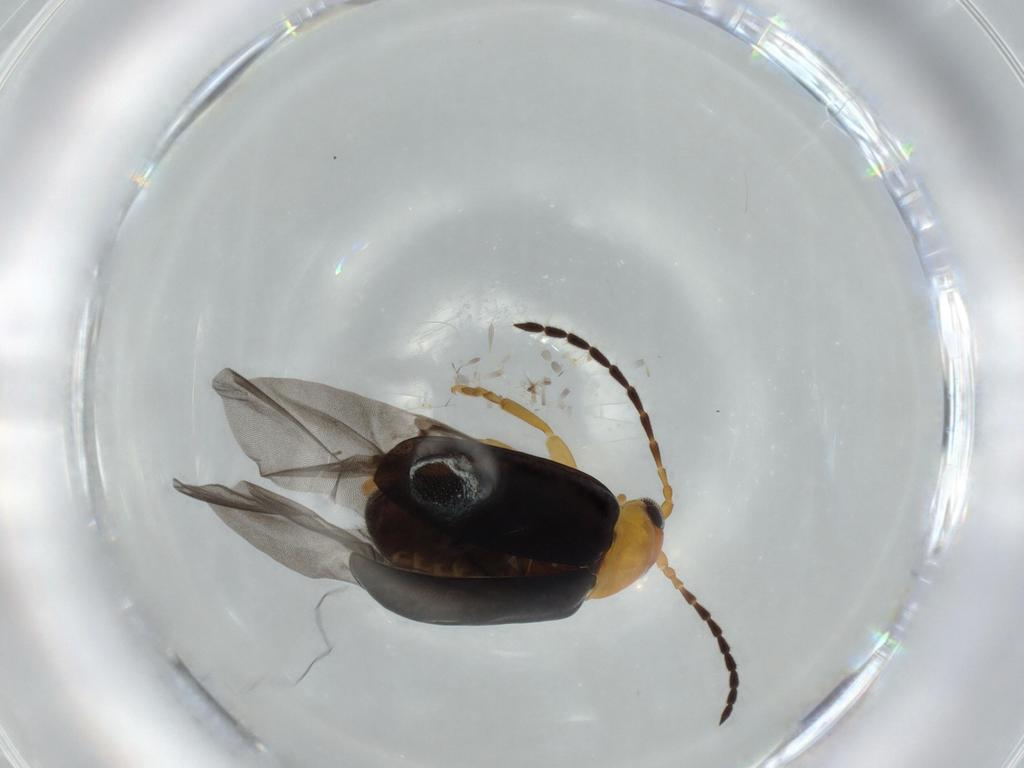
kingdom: Animalia
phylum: Arthropoda
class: Insecta
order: Coleoptera
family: Chrysomelidae
